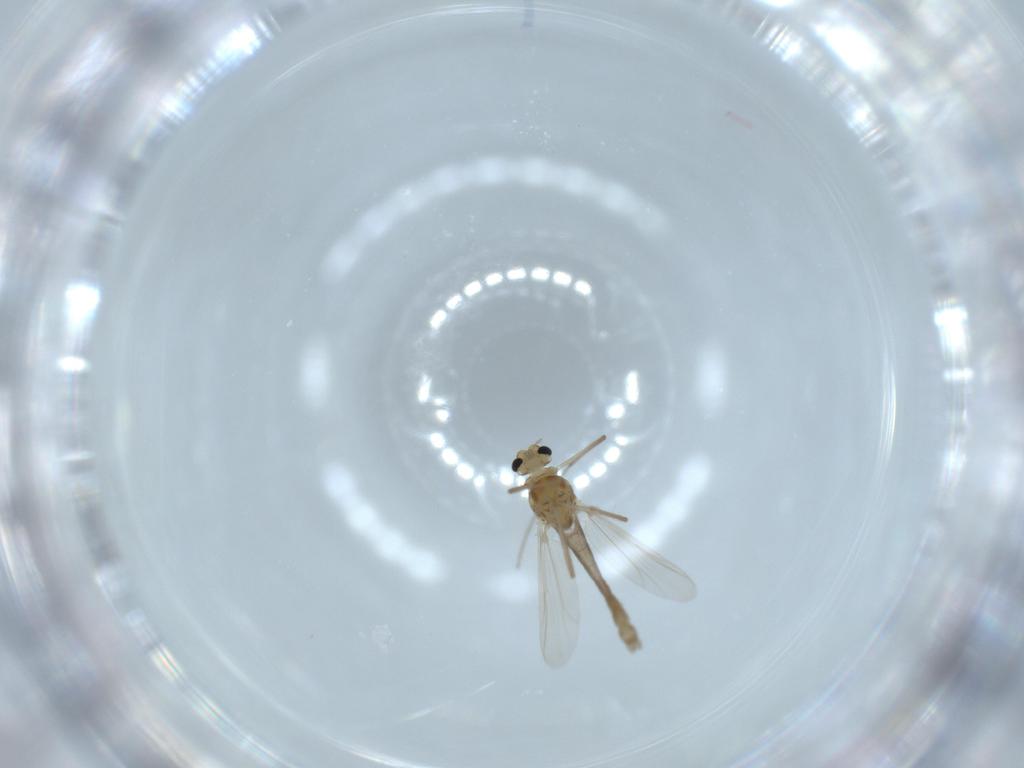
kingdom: Animalia
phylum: Arthropoda
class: Insecta
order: Diptera
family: Chironomidae
